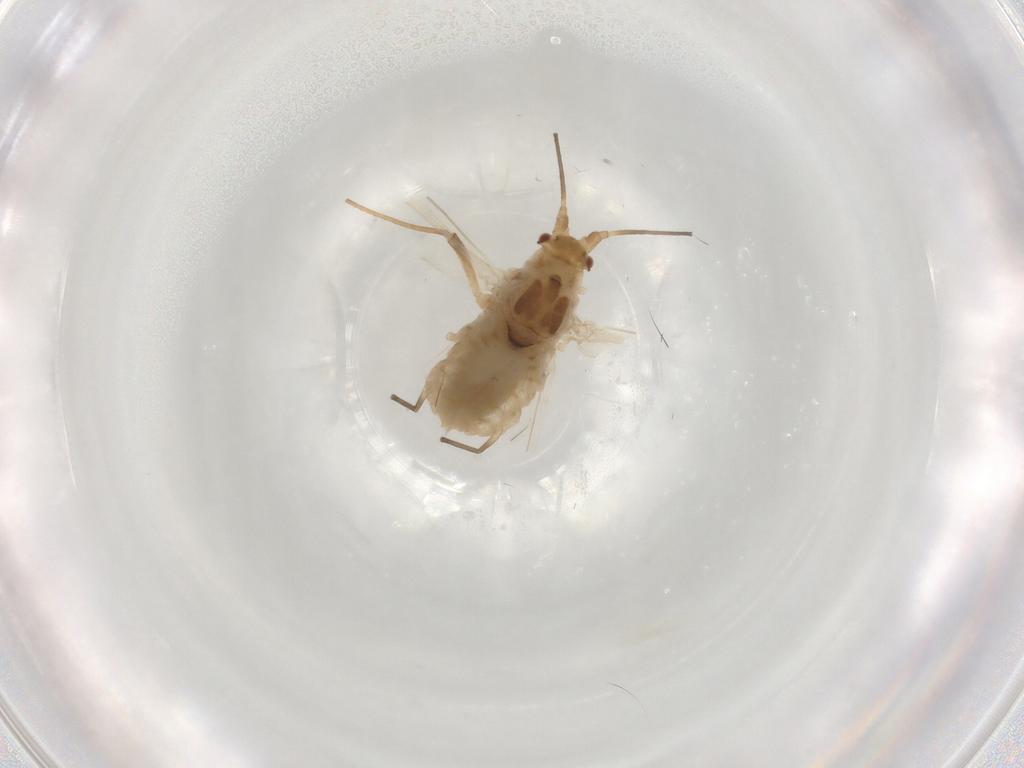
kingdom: Animalia
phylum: Arthropoda
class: Insecta
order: Hemiptera
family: Aphididae
